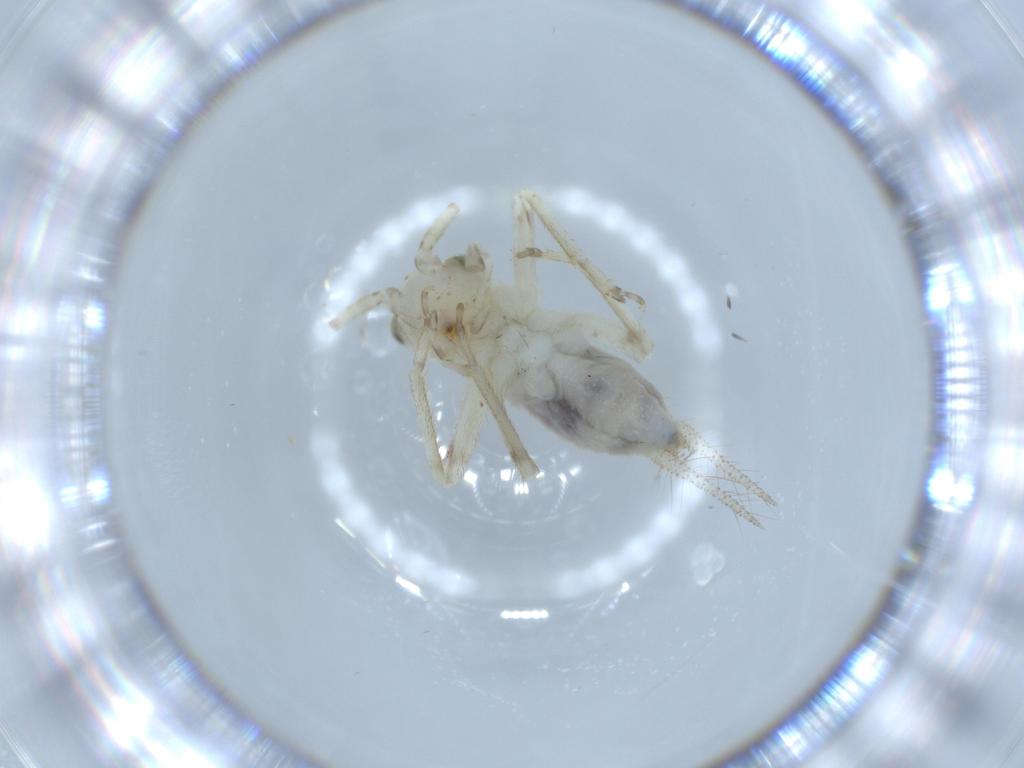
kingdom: Animalia
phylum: Arthropoda
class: Insecta
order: Orthoptera
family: Trigonidiidae
